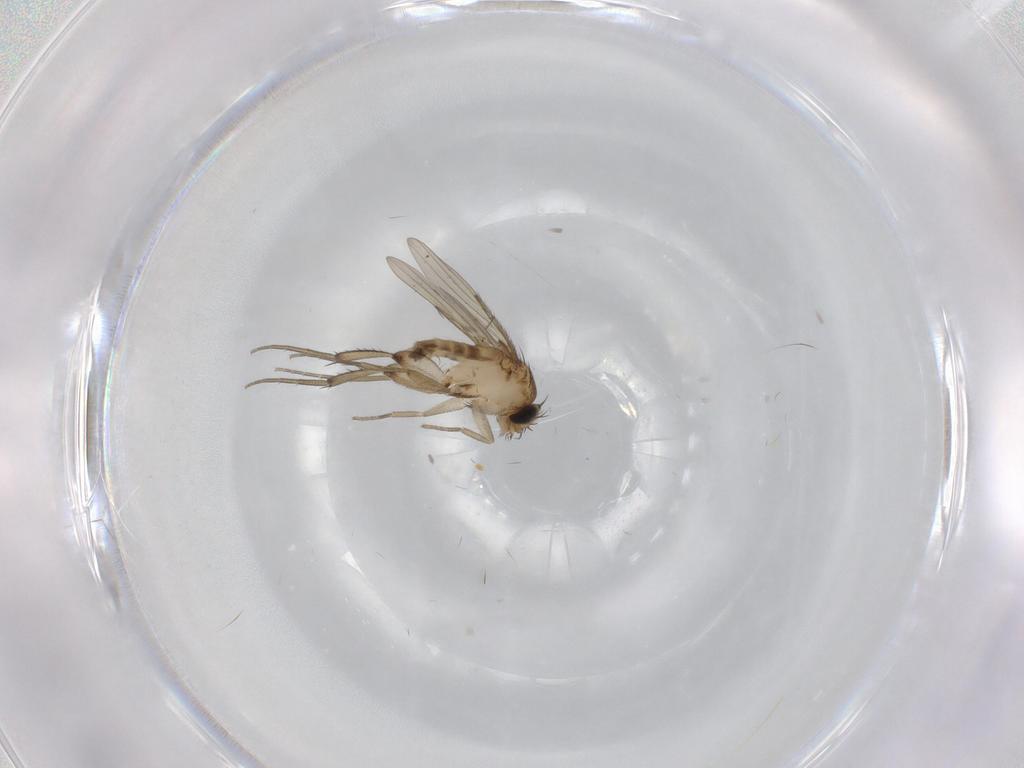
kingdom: Animalia
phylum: Arthropoda
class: Insecta
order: Diptera
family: Phoridae
